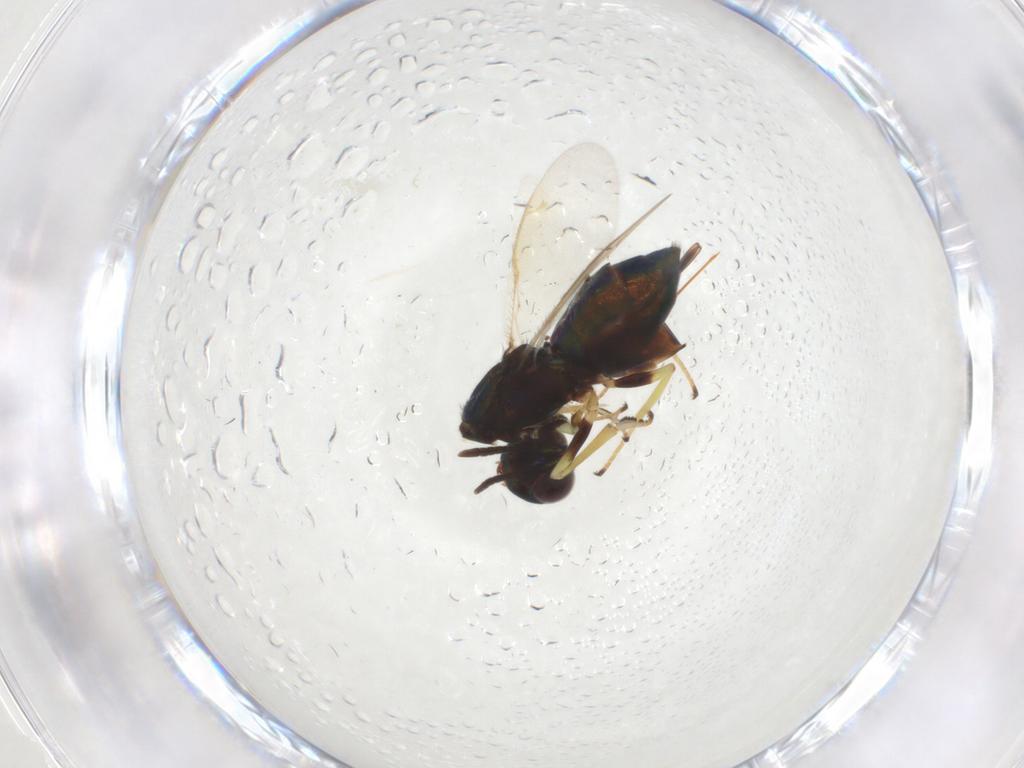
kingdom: Animalia
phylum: Arthropoda
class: Insecta
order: Hymenoptera
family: Eupelmidae
